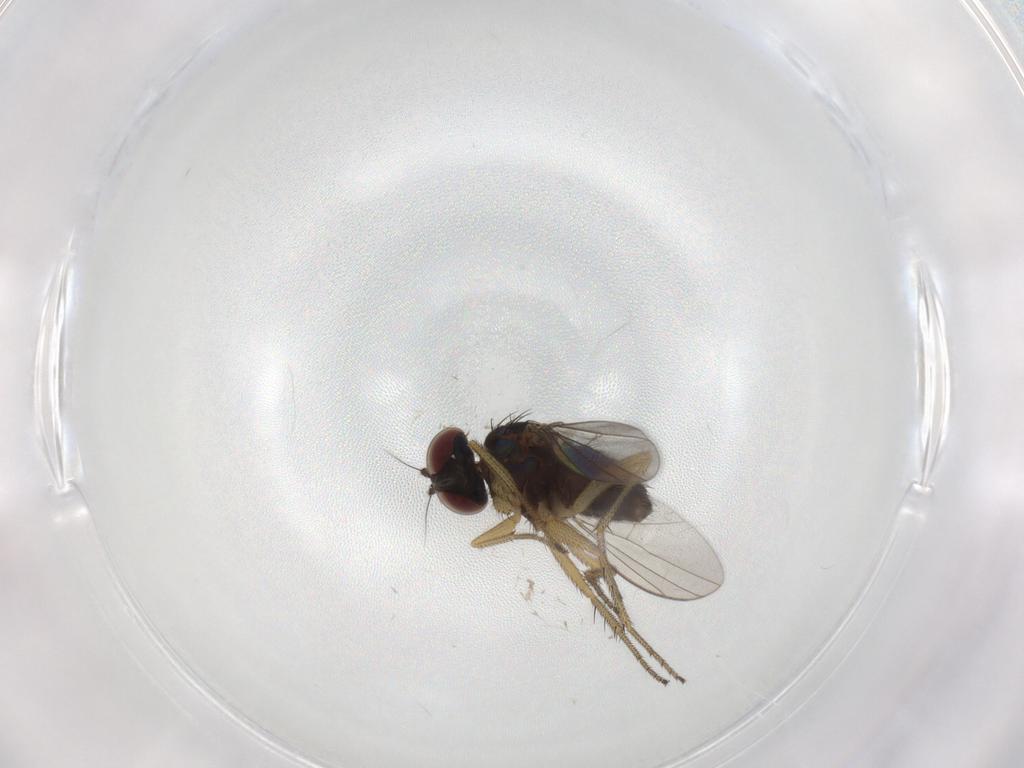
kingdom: Animalia
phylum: Arthropoda
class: Insecta
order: Diptera
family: Dolichopodidae
